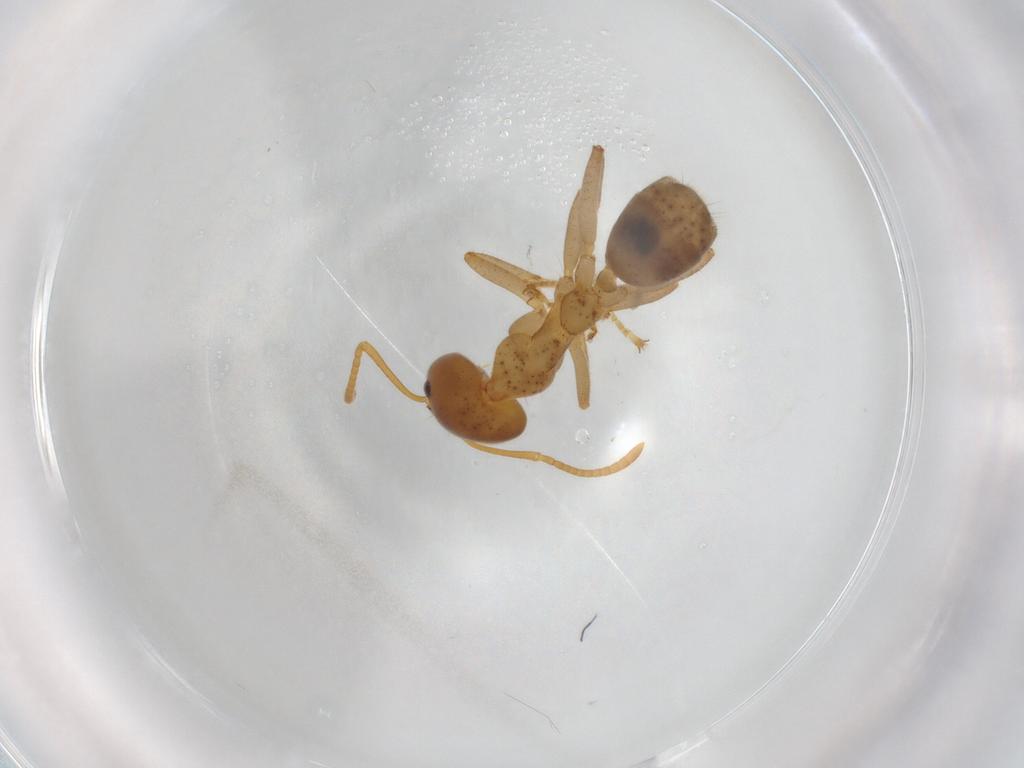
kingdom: Animalia
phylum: Arthropoda
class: Insecta
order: Hymenoptera
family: Formicidae
